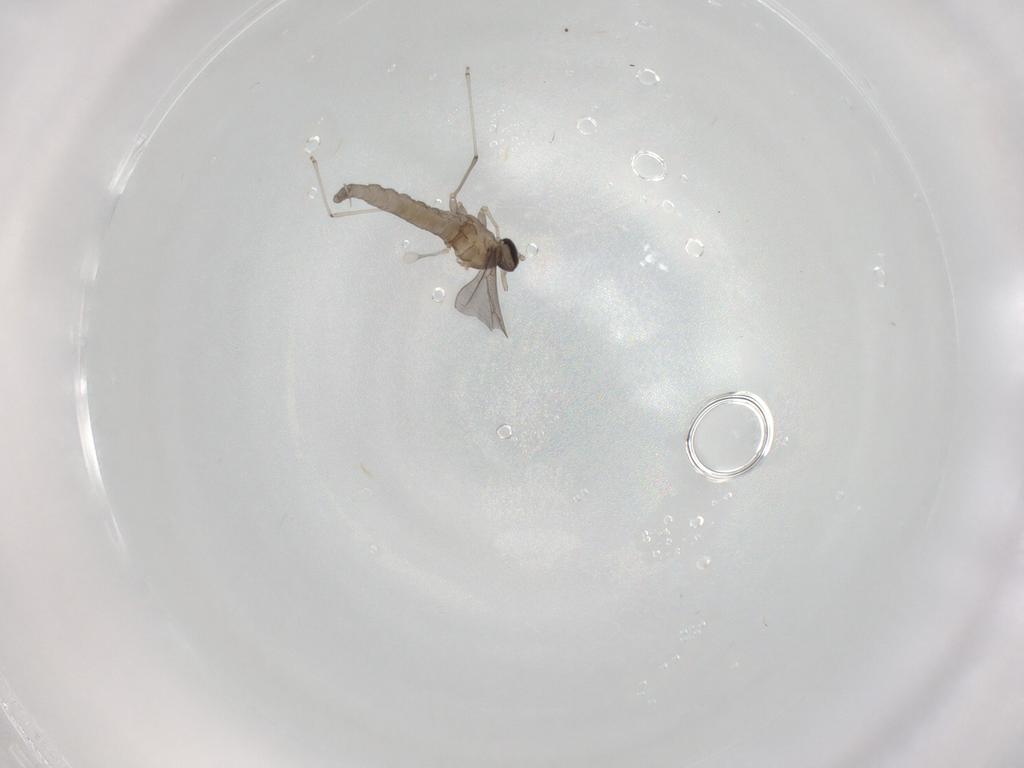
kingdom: Animalia
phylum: Arthropoda
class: Insecta
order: Diptera
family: Cecidomyiidae
